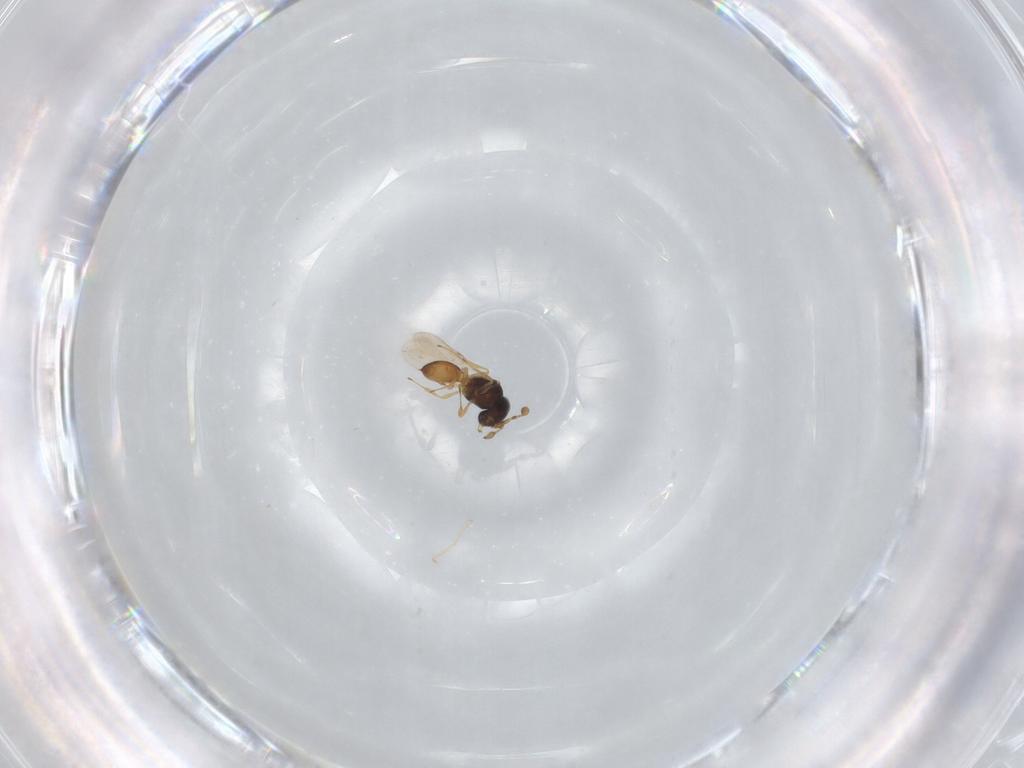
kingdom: Animalia
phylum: Arthropoda
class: Insecta
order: Hymenoptera
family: Scelionidae
